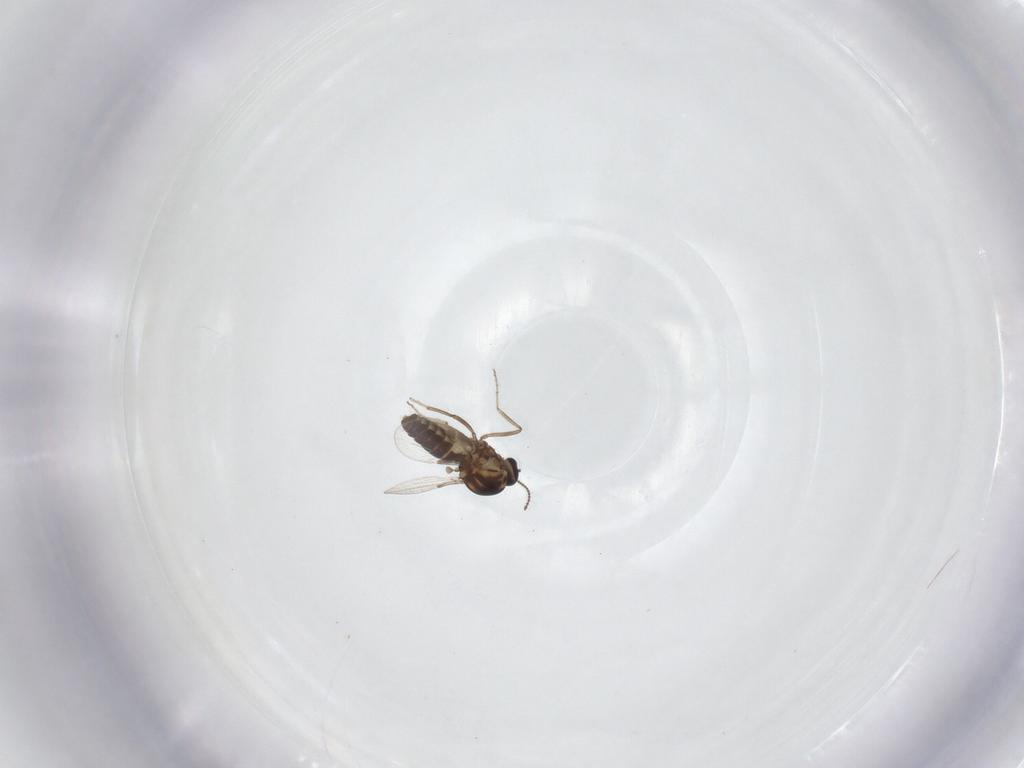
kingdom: Animalia
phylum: Arthropoda
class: Insecta
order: Diptera
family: Ceratopogonidae
